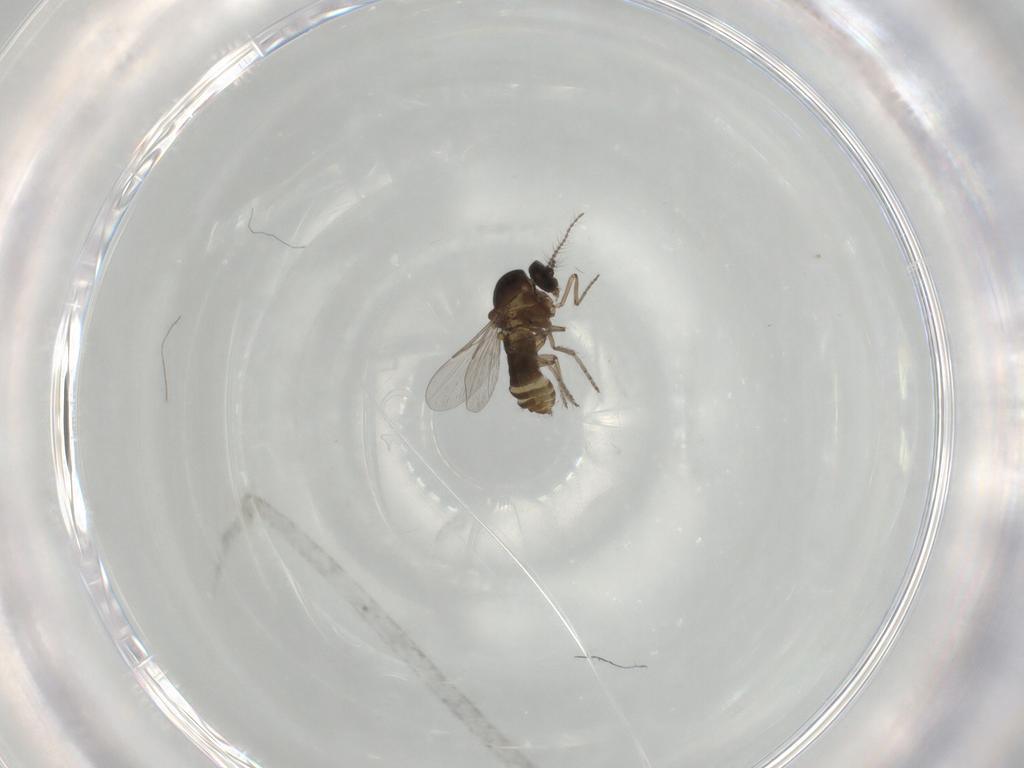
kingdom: Animalia
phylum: Arthropoda
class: Insecta
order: Diptera
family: Ceratopogonidae
